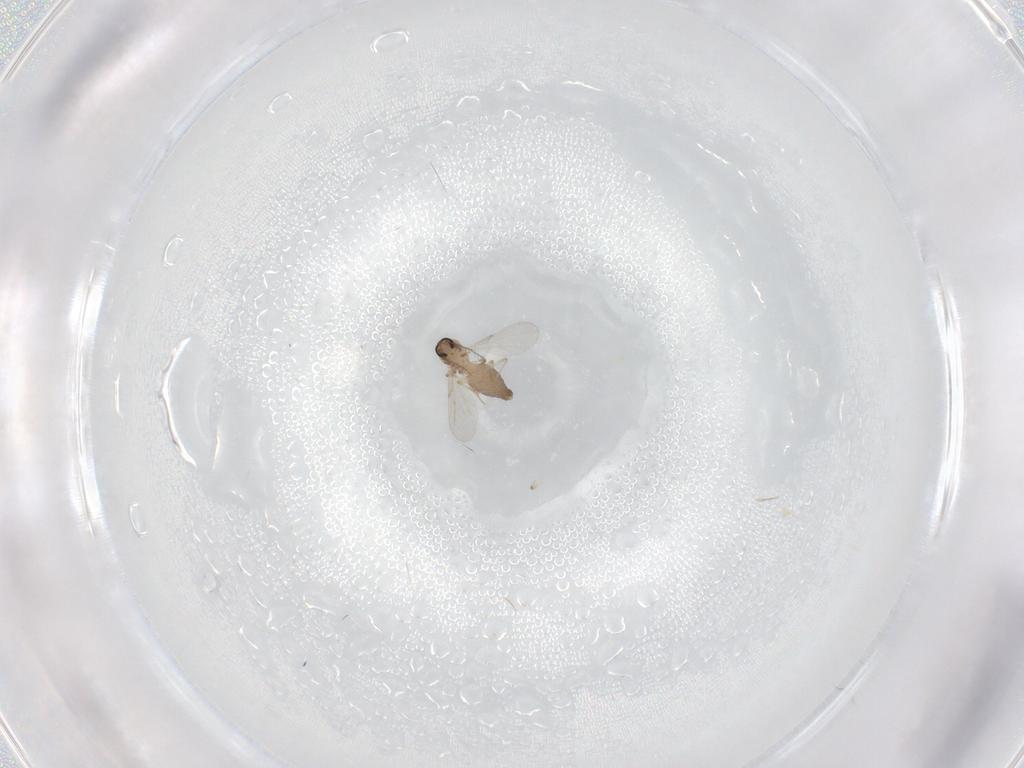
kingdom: Animalia
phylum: Arthropoda
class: Insecta
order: Diptera
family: Ceratopogonidae
